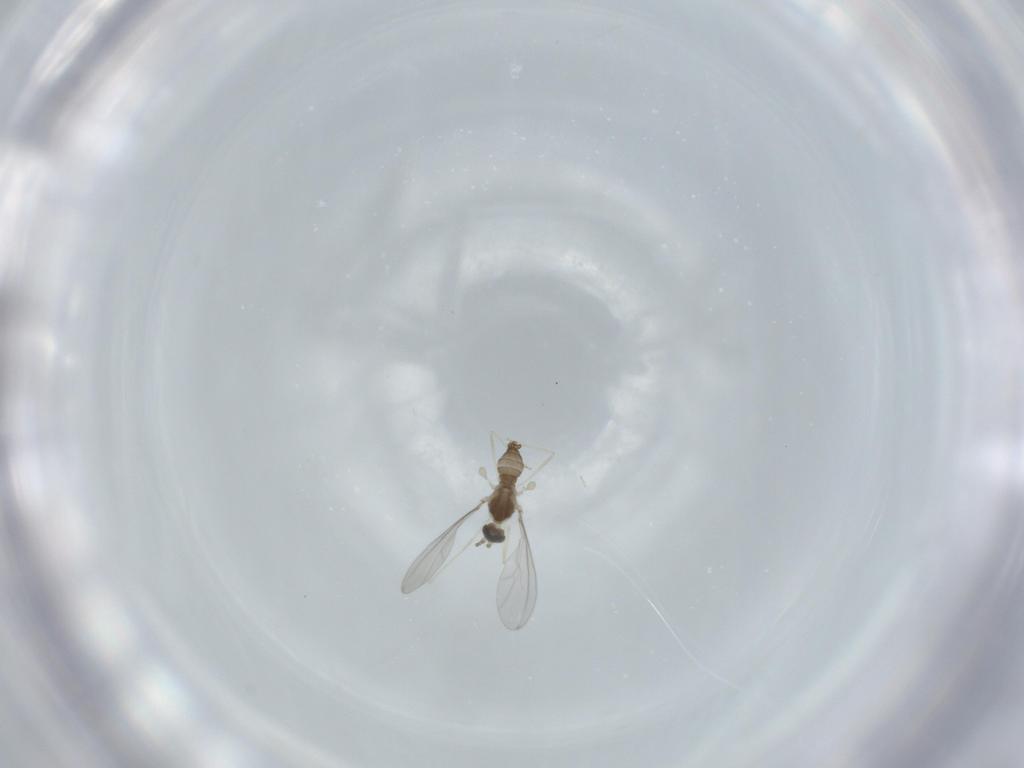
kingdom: Animalia
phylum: Arthropoda
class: Insecta
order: Diptera
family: Cecidomyiidae
